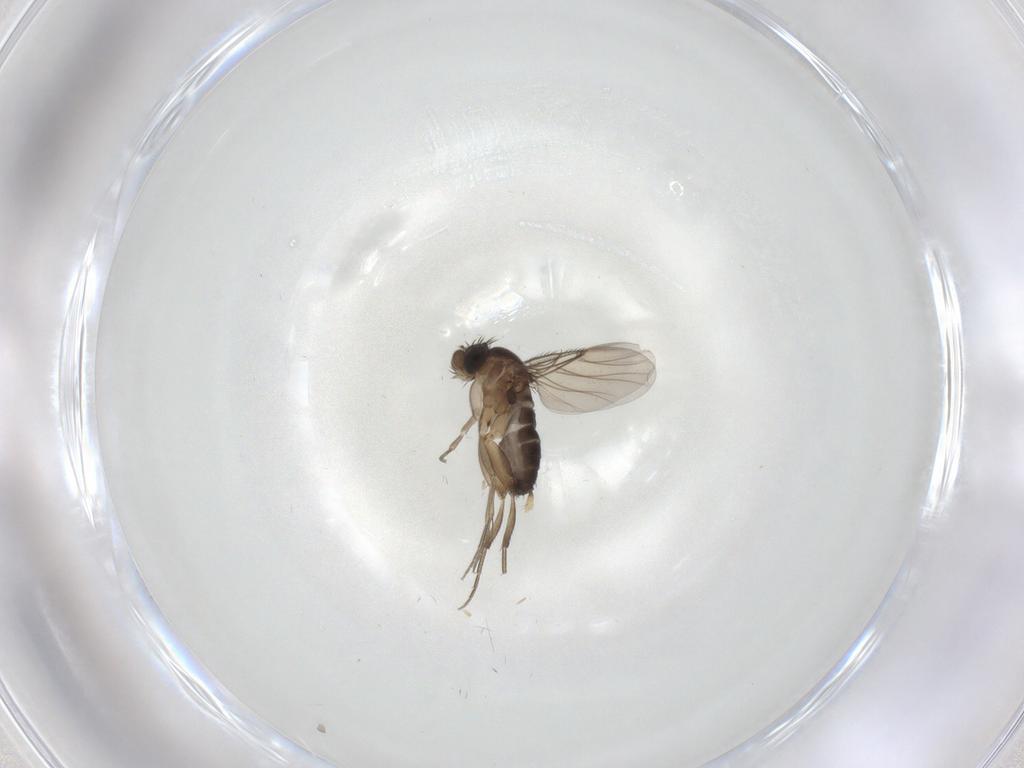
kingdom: Animalia
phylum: Arthropoda
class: Insecta
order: Diptera
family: Phoridae
